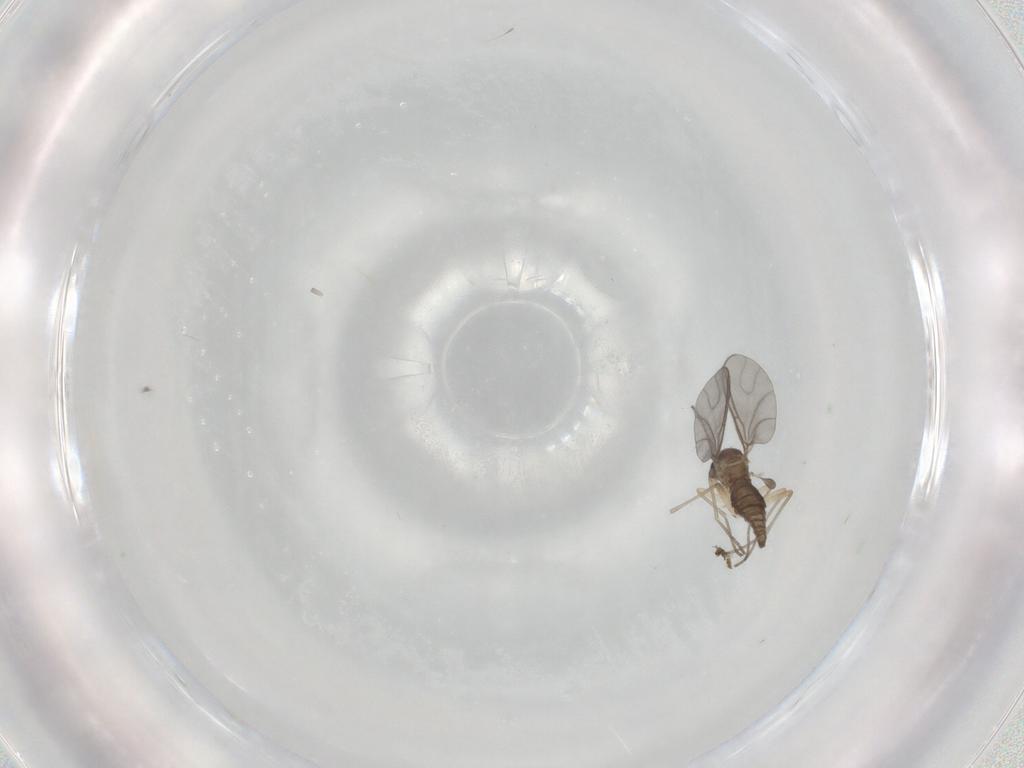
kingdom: Animalia
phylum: Arthropoda
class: Insecta
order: Diptera
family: Sciaridae
